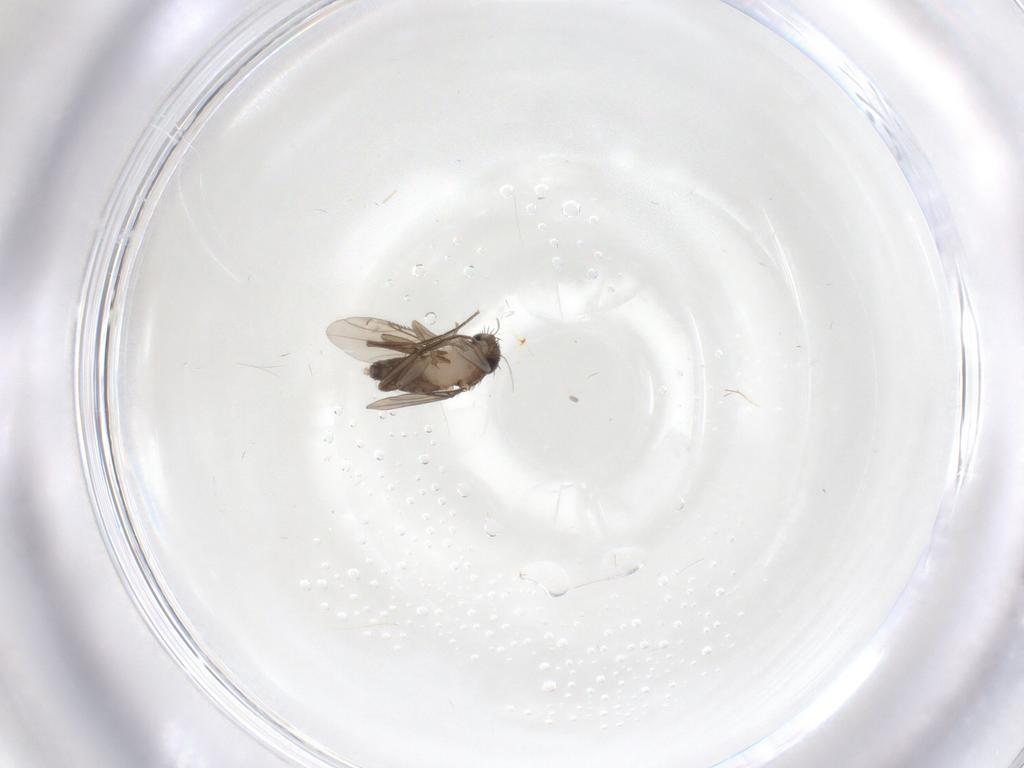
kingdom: Animalia
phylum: Arthropoda
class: Insecta
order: Diptera
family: Phoridae
